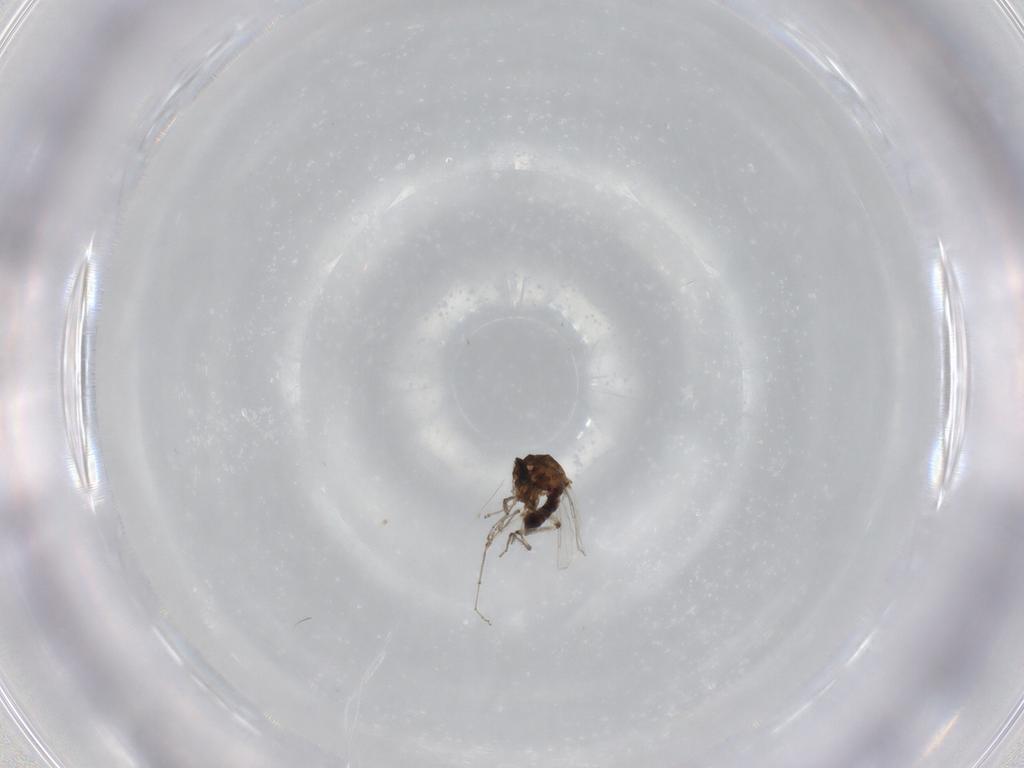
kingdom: Animalia
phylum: Arthropoda
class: Insecta
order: Diptera
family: Ceratopogonidae
